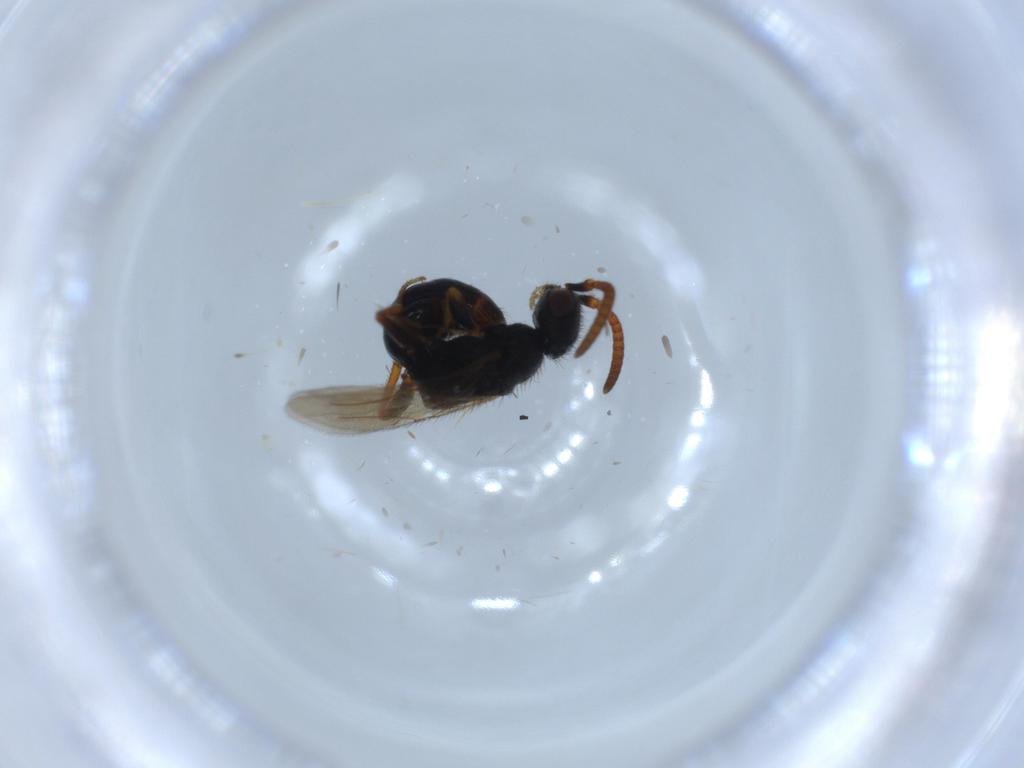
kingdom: Animalia
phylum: Arthropoda
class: Insecta
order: Hymenoptera
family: Bethylidae
